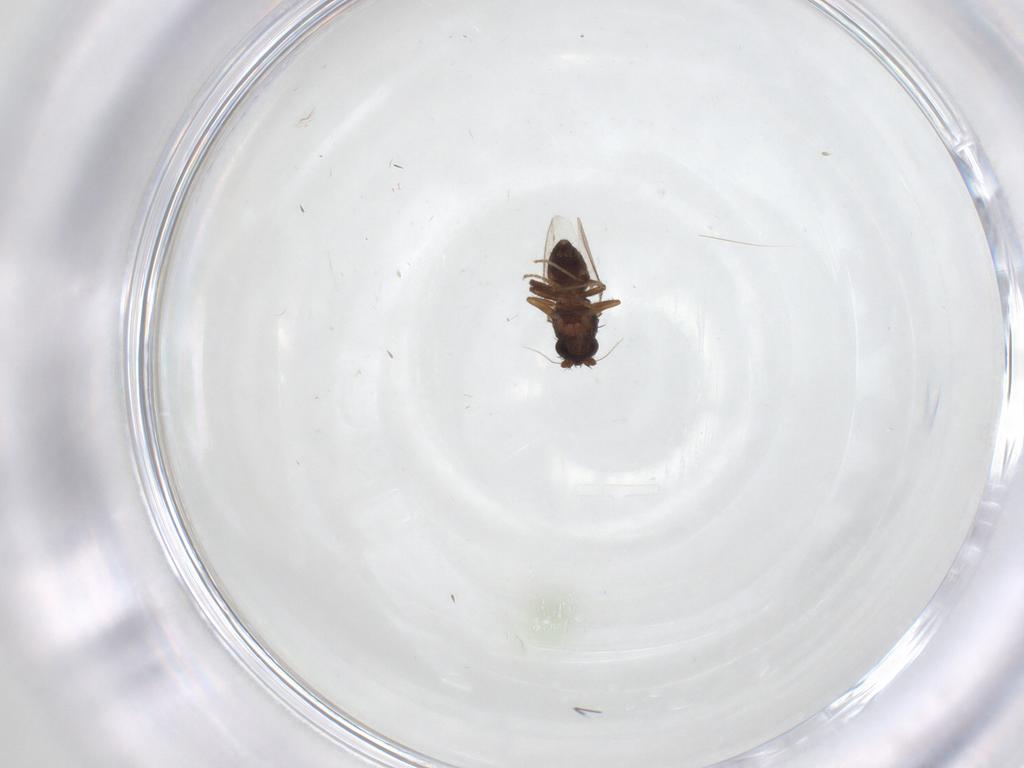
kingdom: Animalia
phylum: Arthropoda
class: Insecta
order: Diptera
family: Sphaeroceridae
